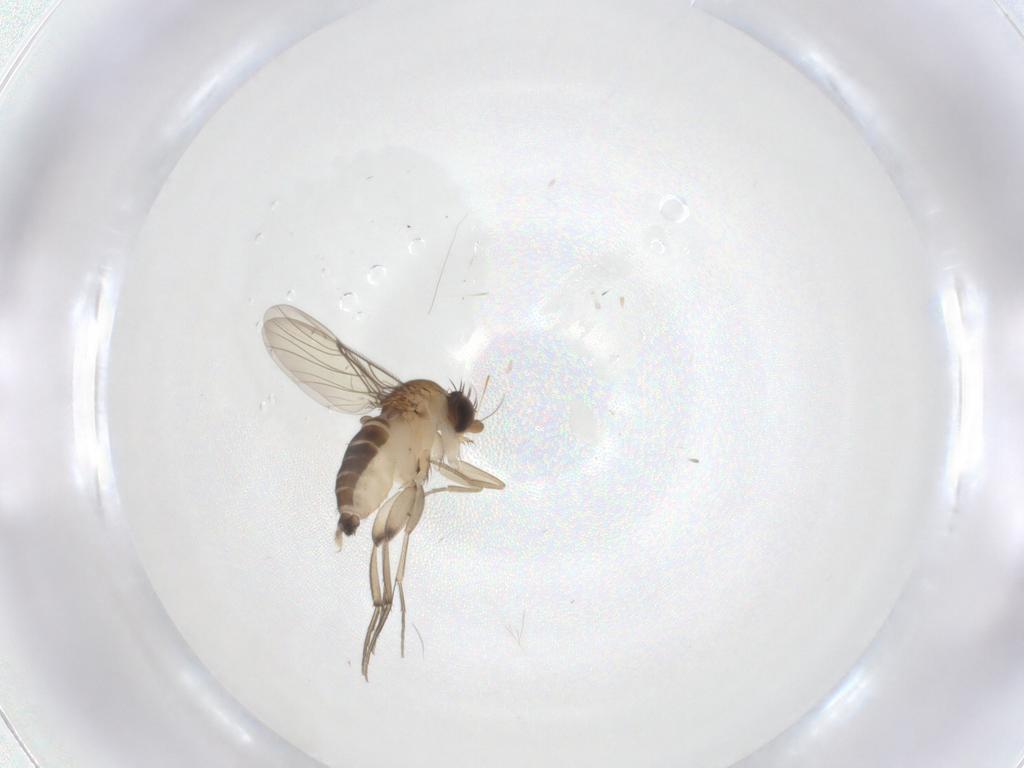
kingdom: Animalia
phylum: Arthropoda
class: Insecta
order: Diptera
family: Phoridae
